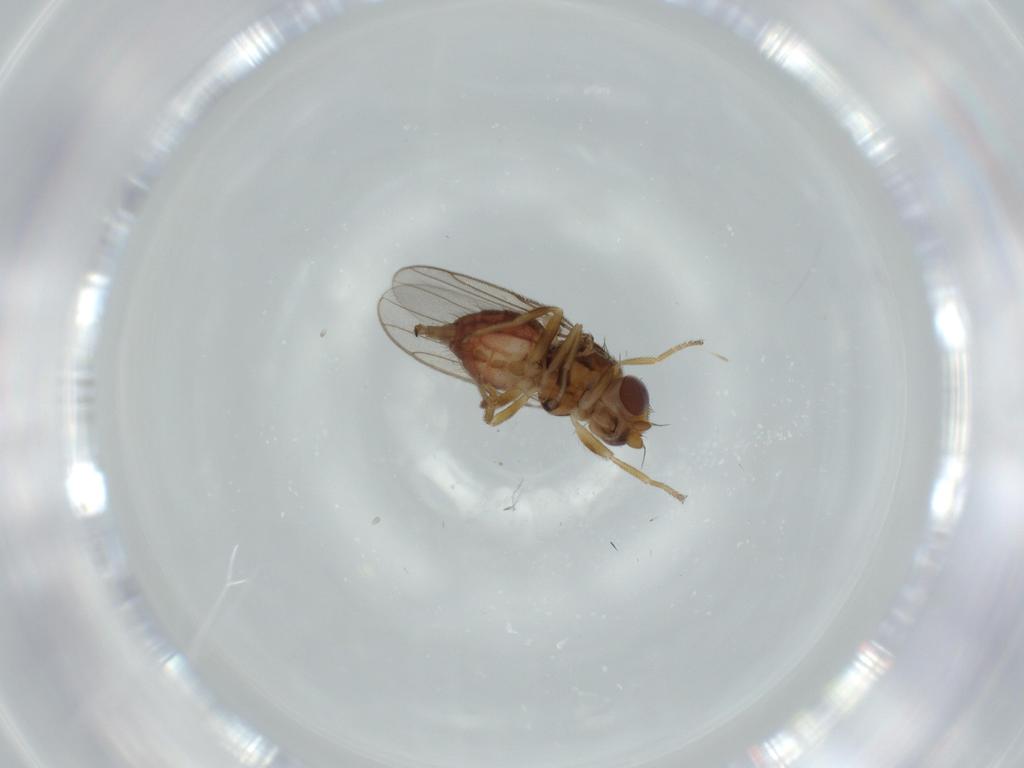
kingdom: Animalia
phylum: Arthropoda
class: Insecta
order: Diptera
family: Chloropidae
